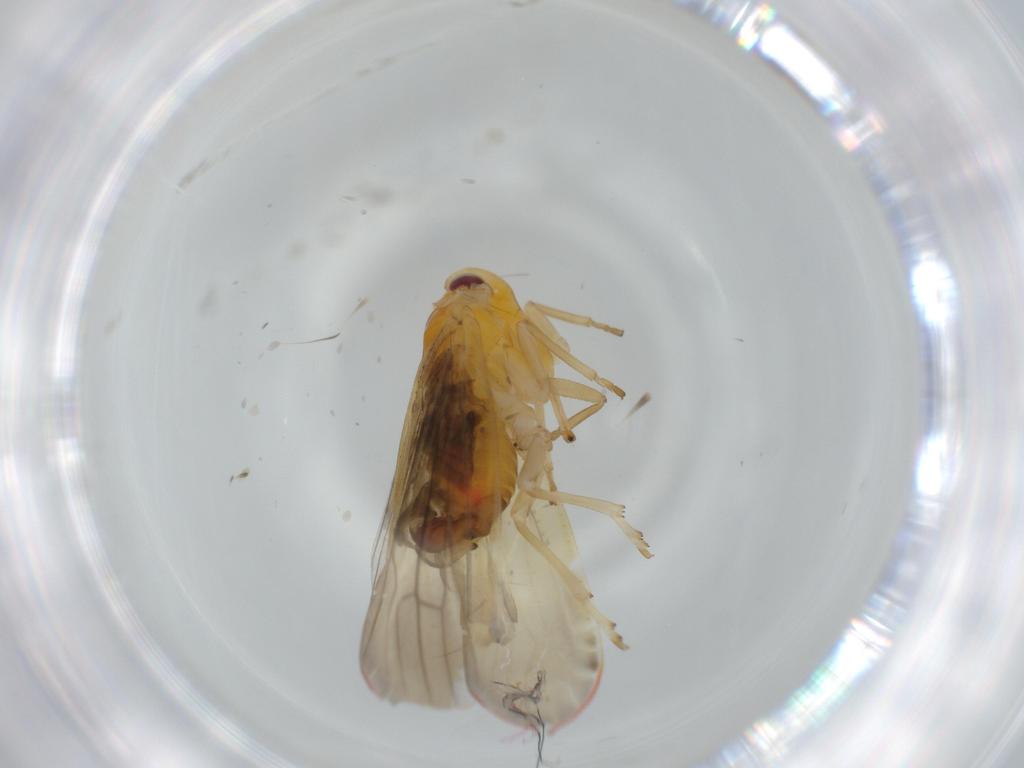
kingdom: Animalia
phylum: Arthropoda
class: Insecta
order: Hemiptera
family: Derbidae
